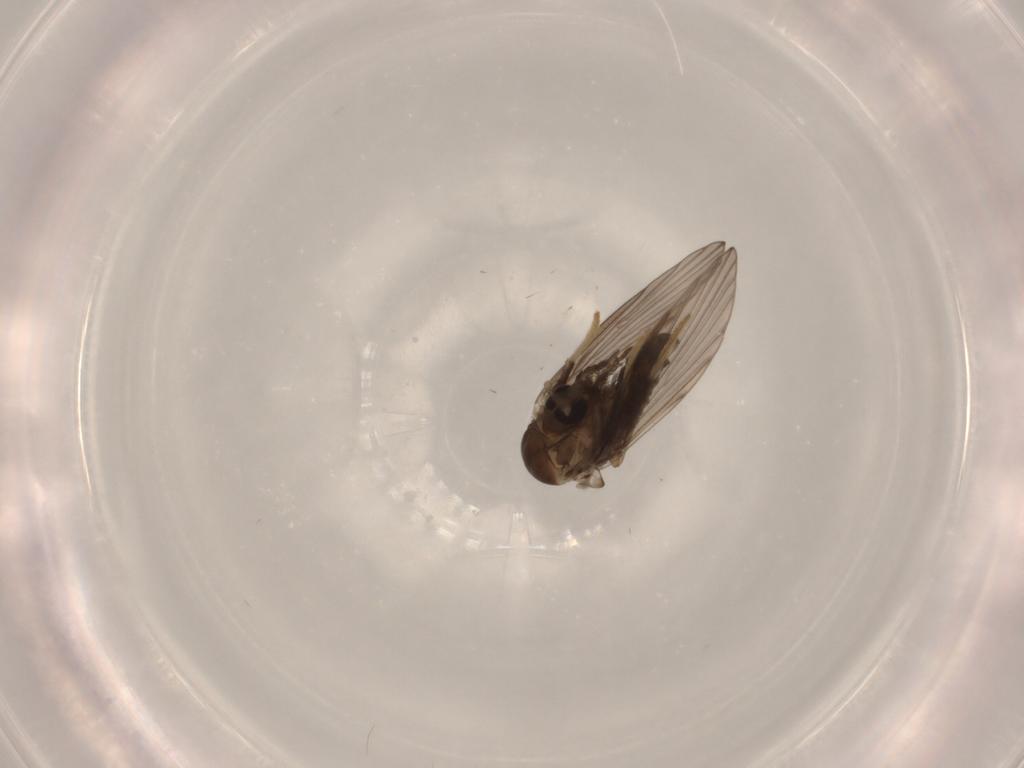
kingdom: Animalia
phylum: Arthropoda
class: Insecta
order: Diptera
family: Psychodidae
